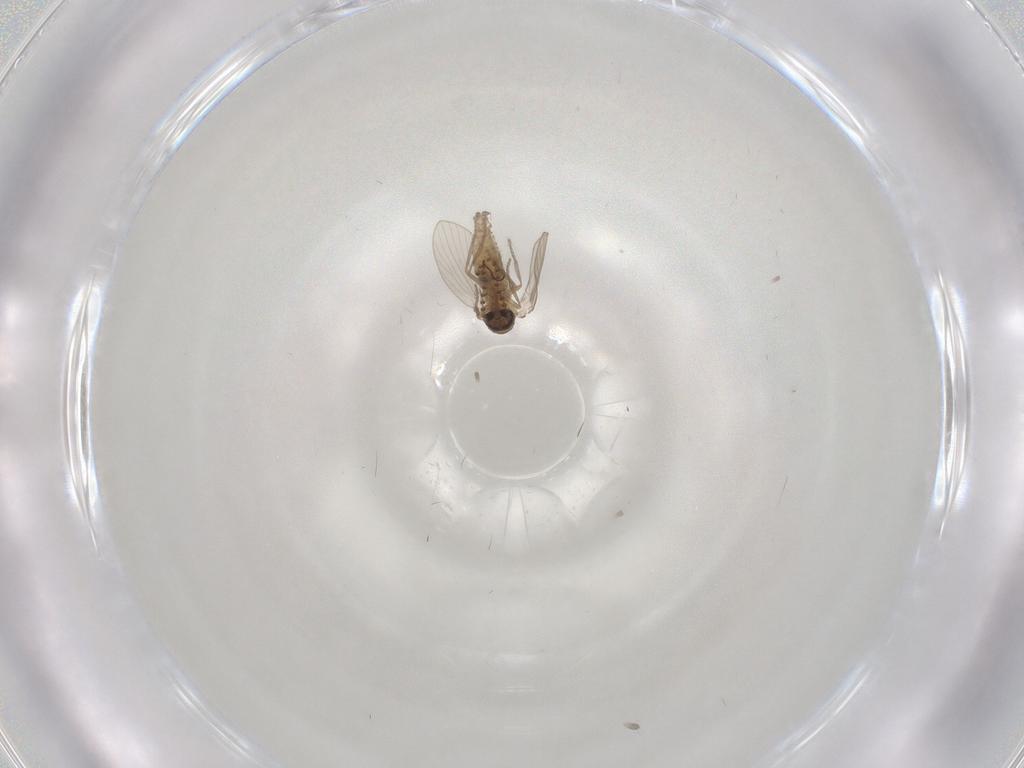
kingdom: Animalia
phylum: Arthropoda
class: Insecta
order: Diptera
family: Psychodidae
